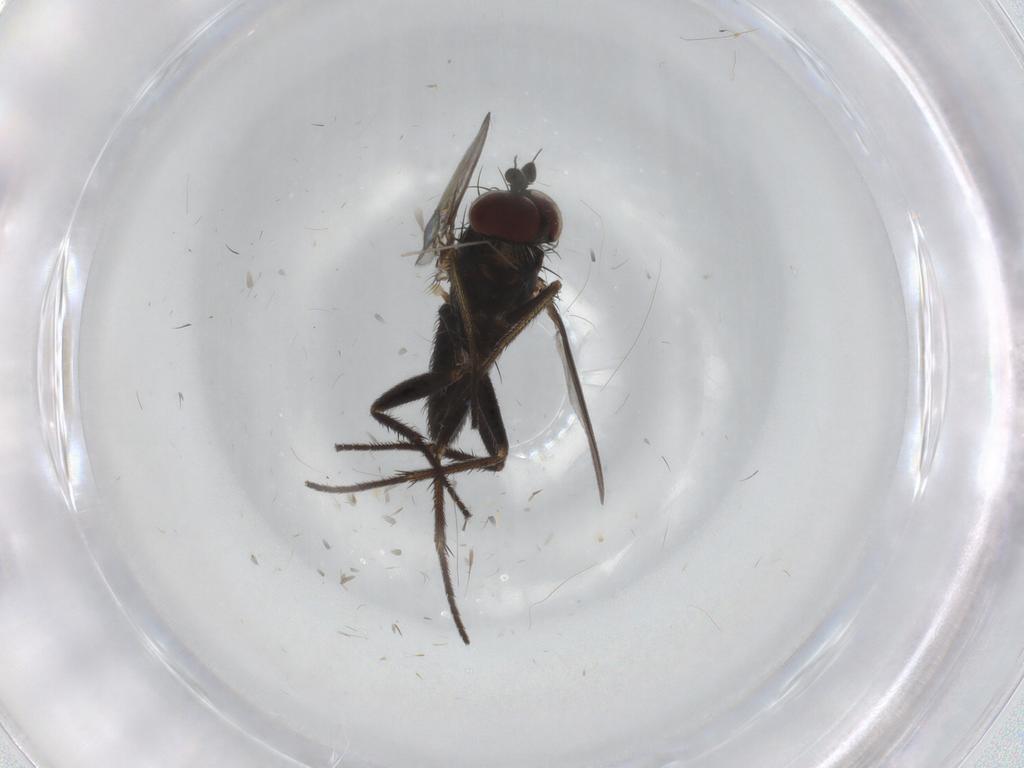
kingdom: Animalia
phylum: Arthropoda
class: Insecta
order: Diptera
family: Dolichopodidae
